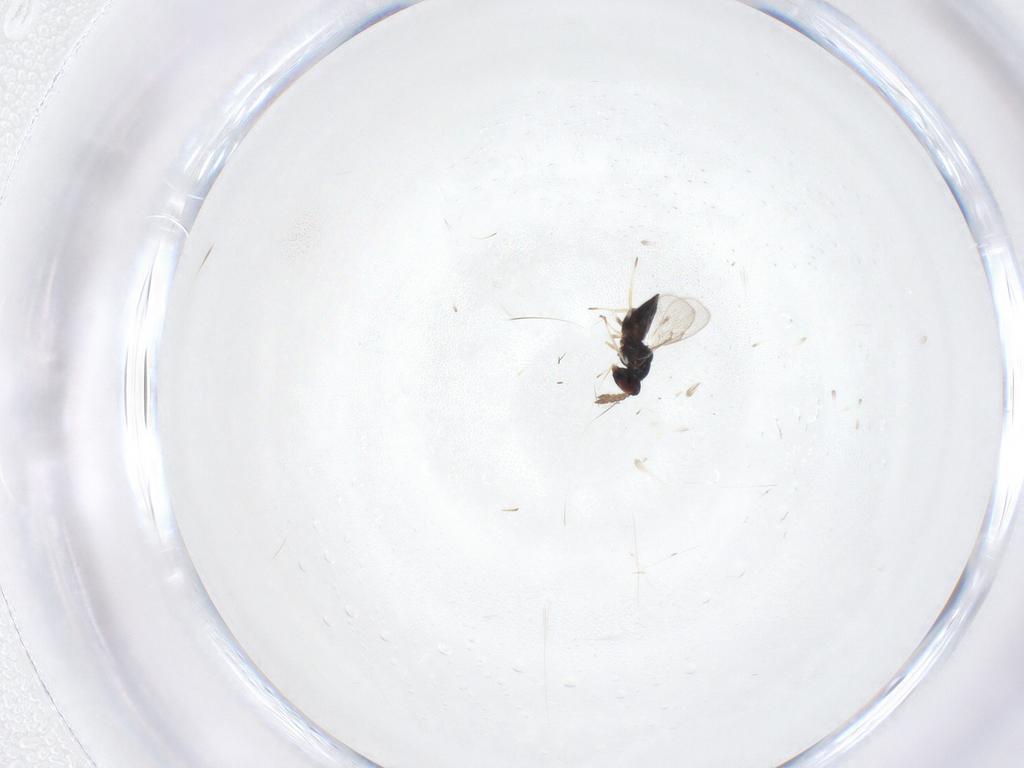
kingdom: Animalia
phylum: Arthropoda
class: Insecta
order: Hymenoptera
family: Eulophidae
